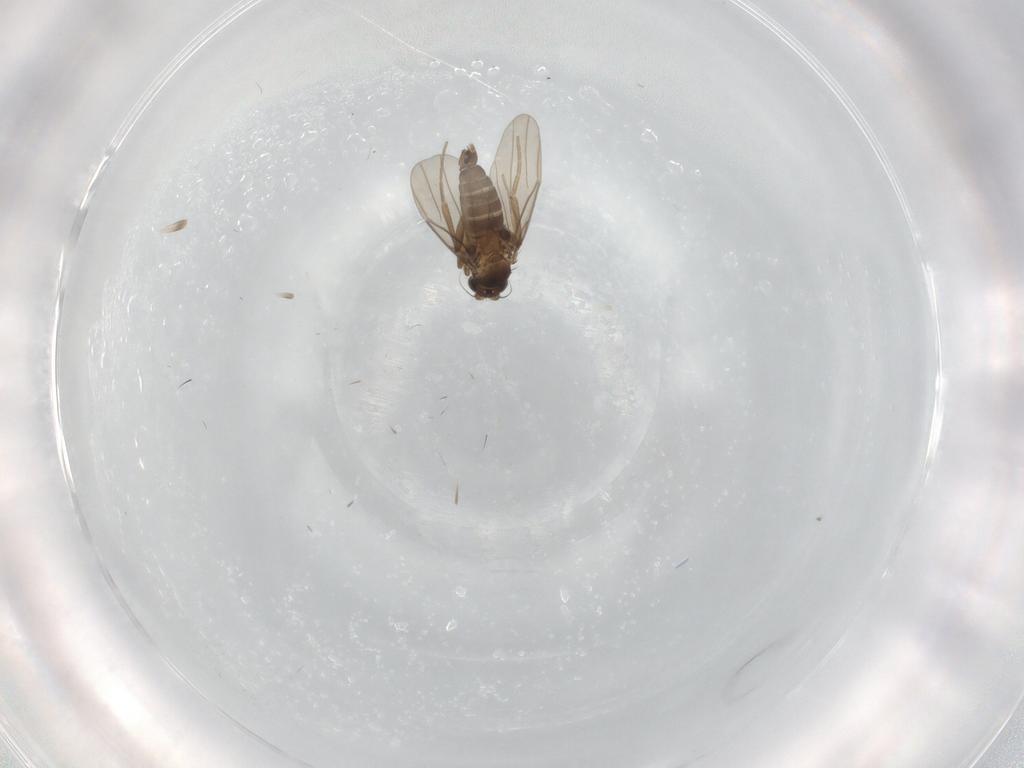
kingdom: Animalia
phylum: Arthropoda
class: Insecta
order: Diptera
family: Phoridae
